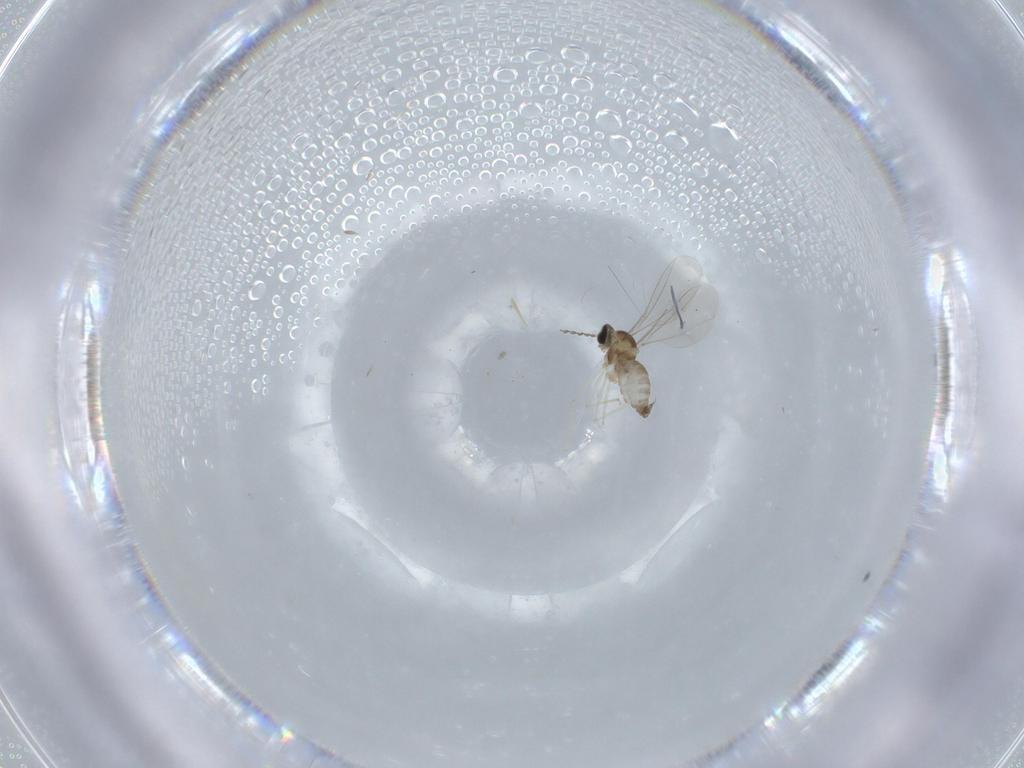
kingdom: Animalia
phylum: Arthropoda
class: Insecta
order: Diptera
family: Cecidomyiidae
